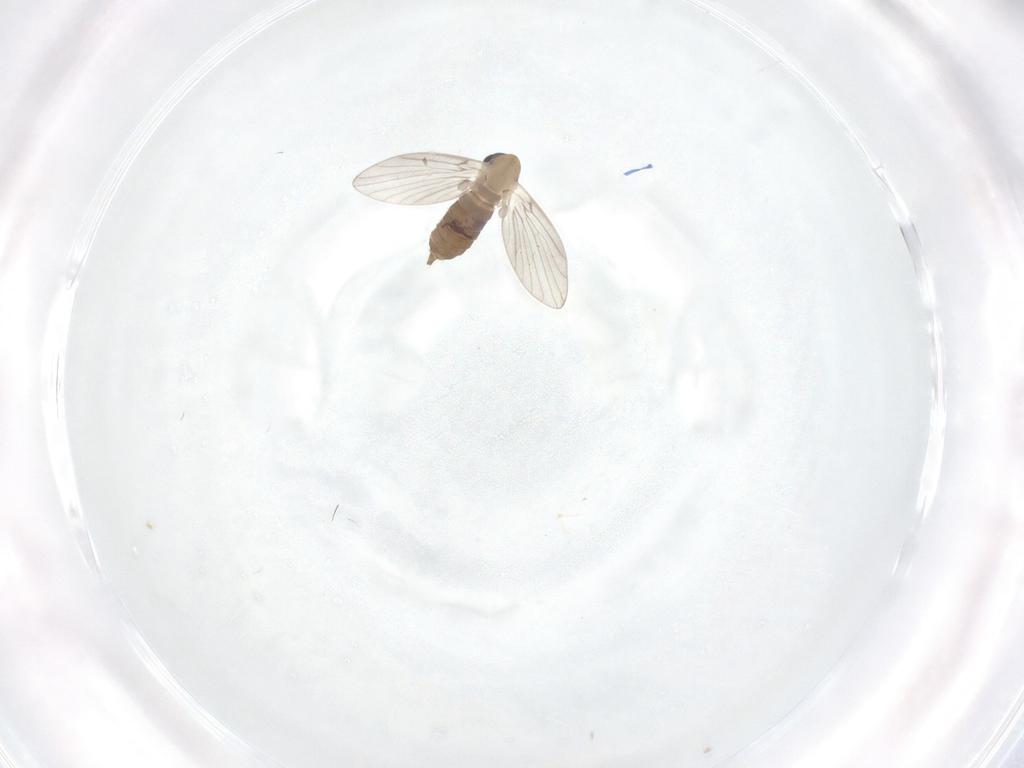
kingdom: Animalia
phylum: Arthropoda
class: Insecta
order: Diptera
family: Psychodidae
